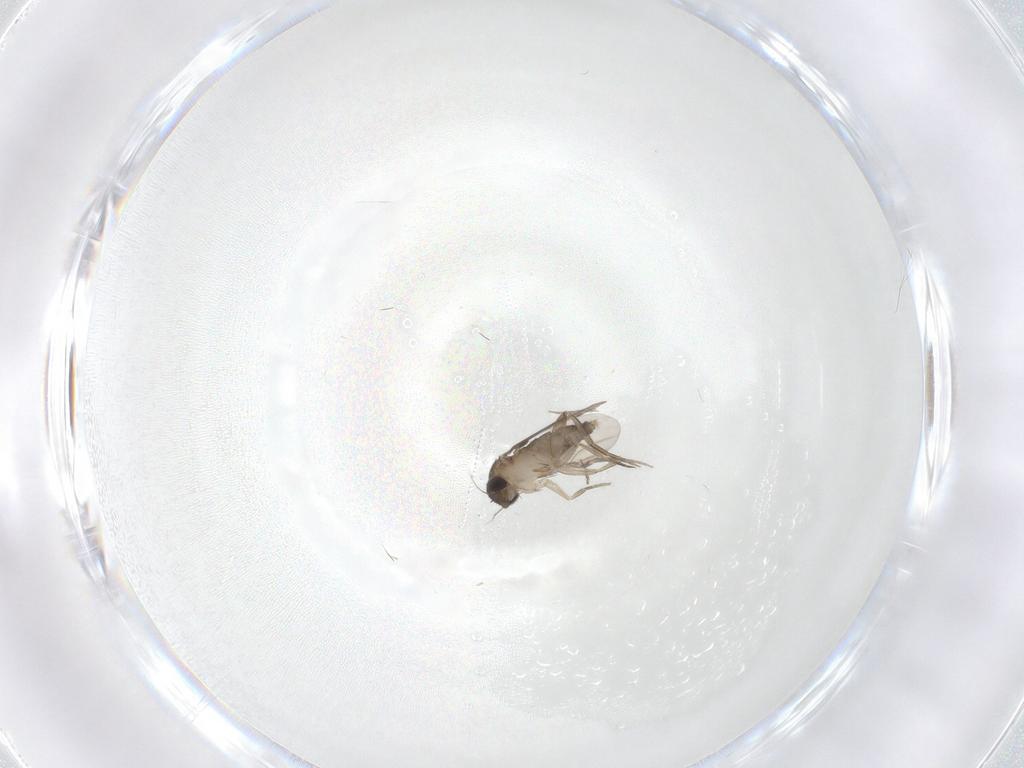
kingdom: Animalia
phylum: Arthropoda
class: Insecta
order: Diptera
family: Phoridae
